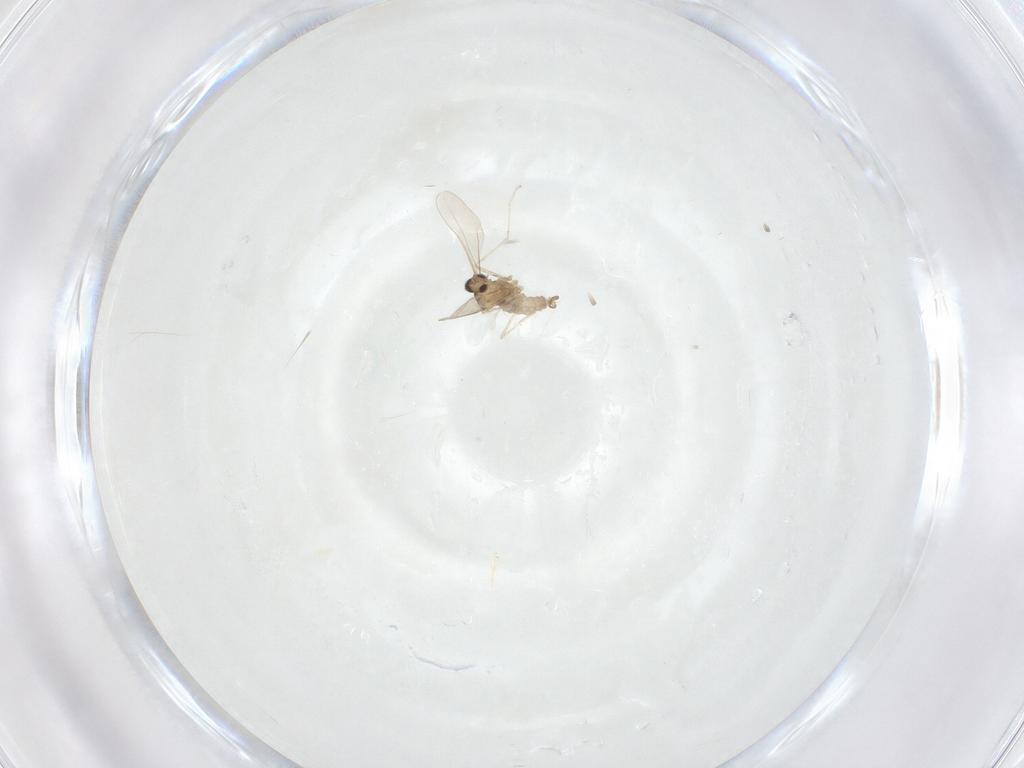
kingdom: Animalia
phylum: Arthropoda
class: Insecta
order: Diptera
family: Cecidomyiidae
